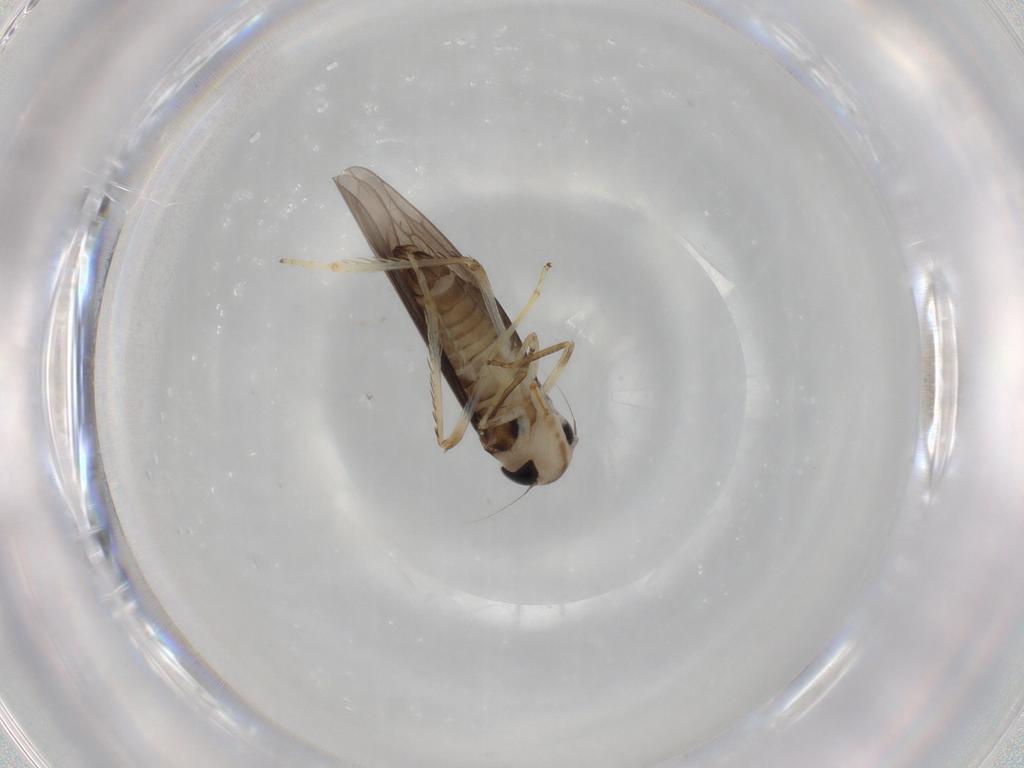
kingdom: Animalia
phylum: Arthropoda
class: Insecta
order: Hemiptera
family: Cicadellidae
